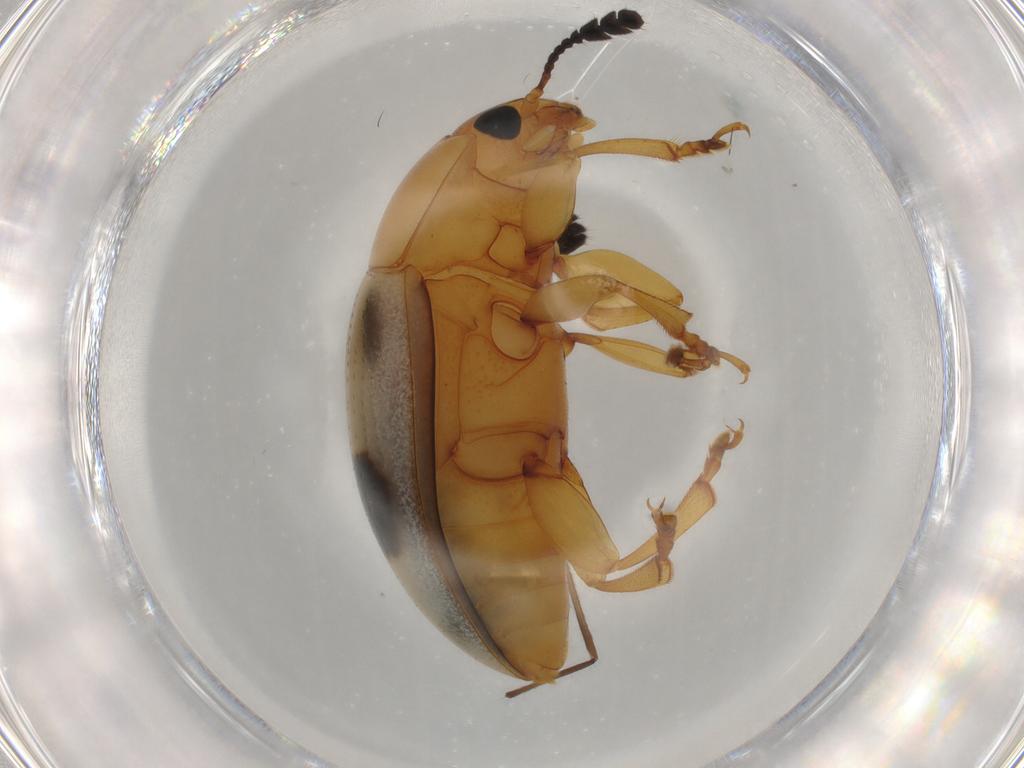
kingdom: Animalia
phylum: Arthropoda
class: Insecta
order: Coleoptera
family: Erotylidae
